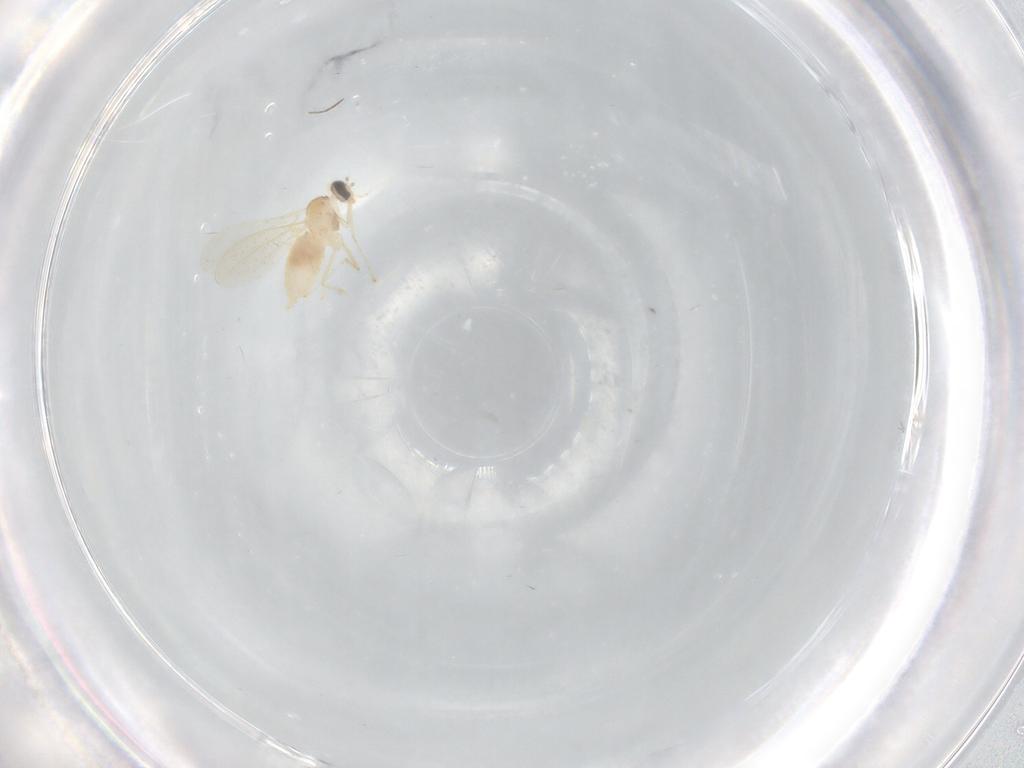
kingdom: Animalia
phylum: Arthropoda
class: Insecta
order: Diptera
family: Cecidomyiidae
